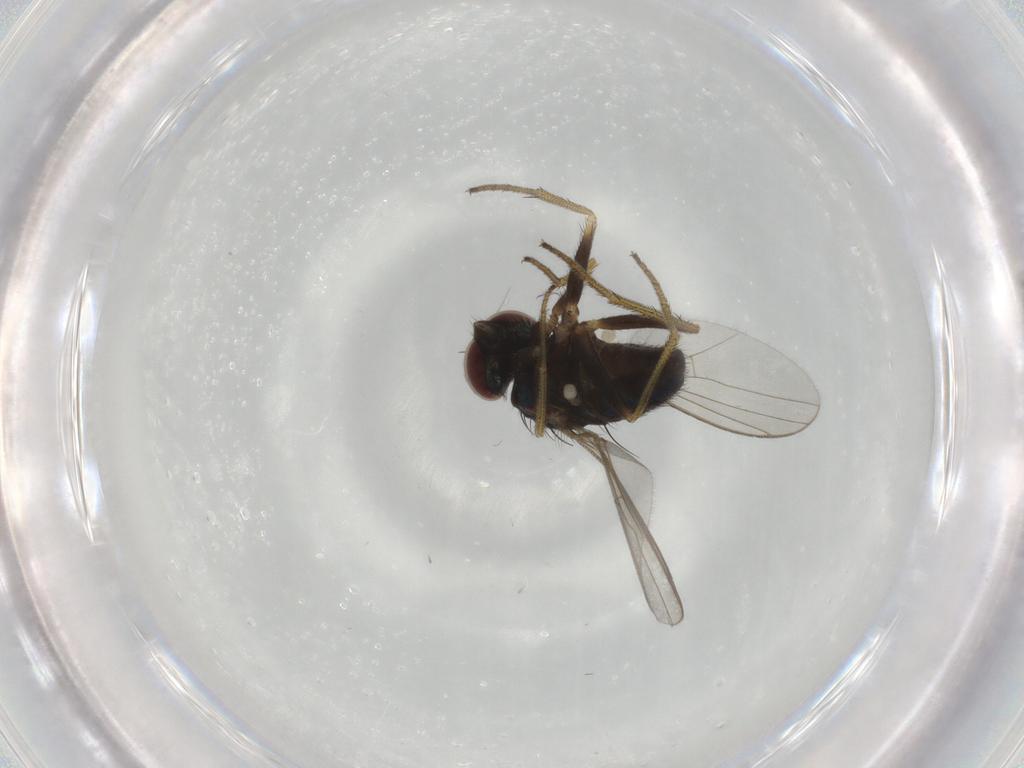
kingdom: Animalia
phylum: Arthropoda
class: Insecta
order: Diptera
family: Dolichopodidae
